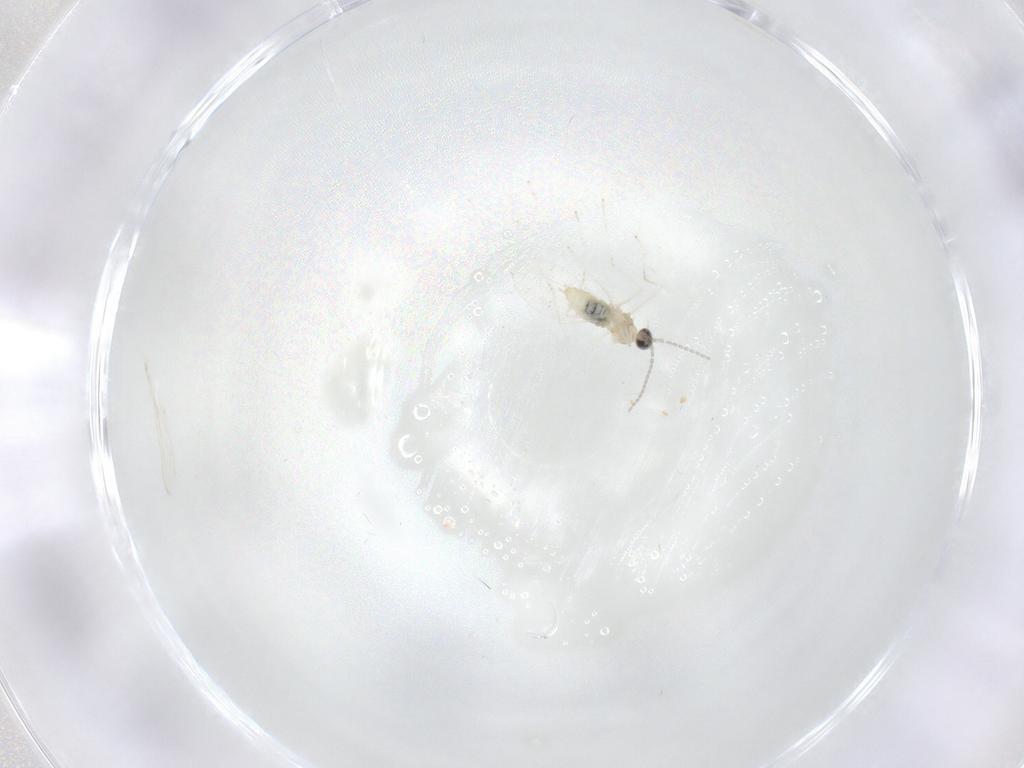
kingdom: Animalia
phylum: Arthropoda
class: Insecta
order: Diptera
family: Cecidomyiidae
